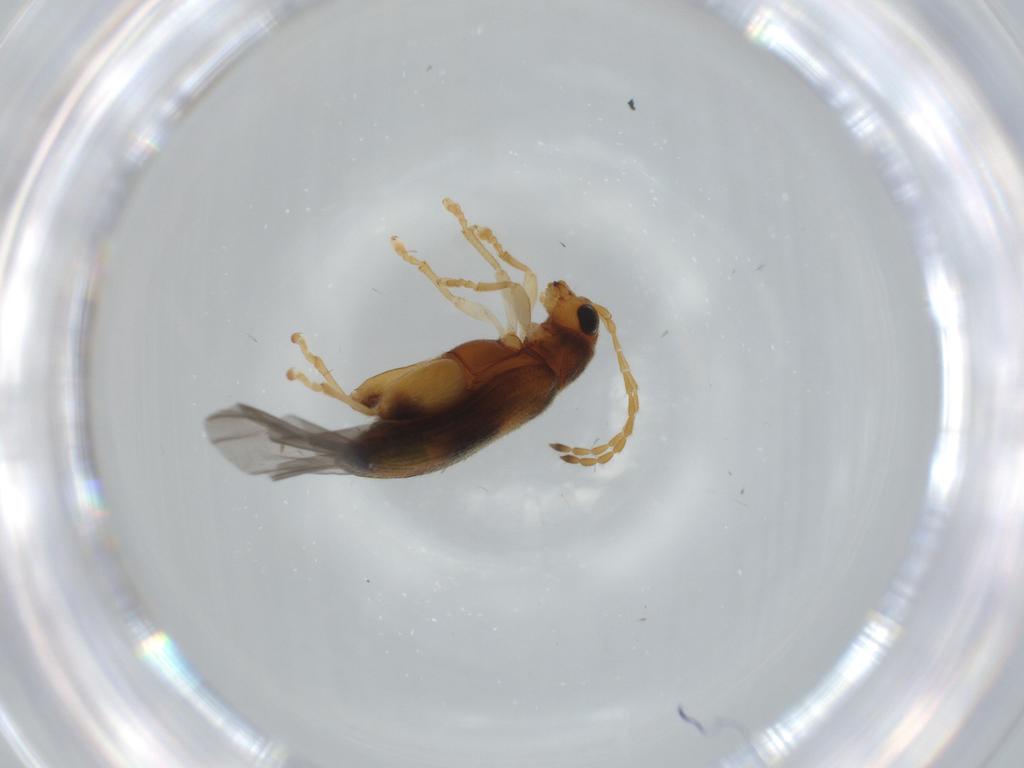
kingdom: Animalia
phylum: Arthropoda
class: Insecta
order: Coleoptera
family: Chrysomelidae
